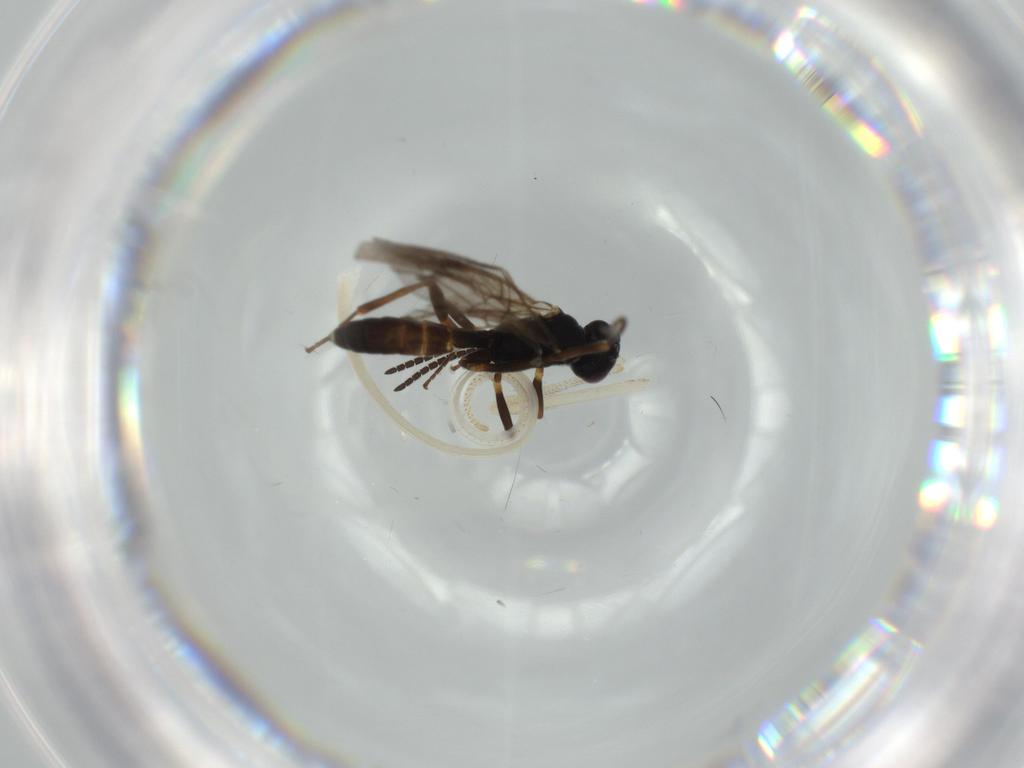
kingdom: Animalia
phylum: Arthropoda
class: Insecta
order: Hymenoptera
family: Ichneumonidae
